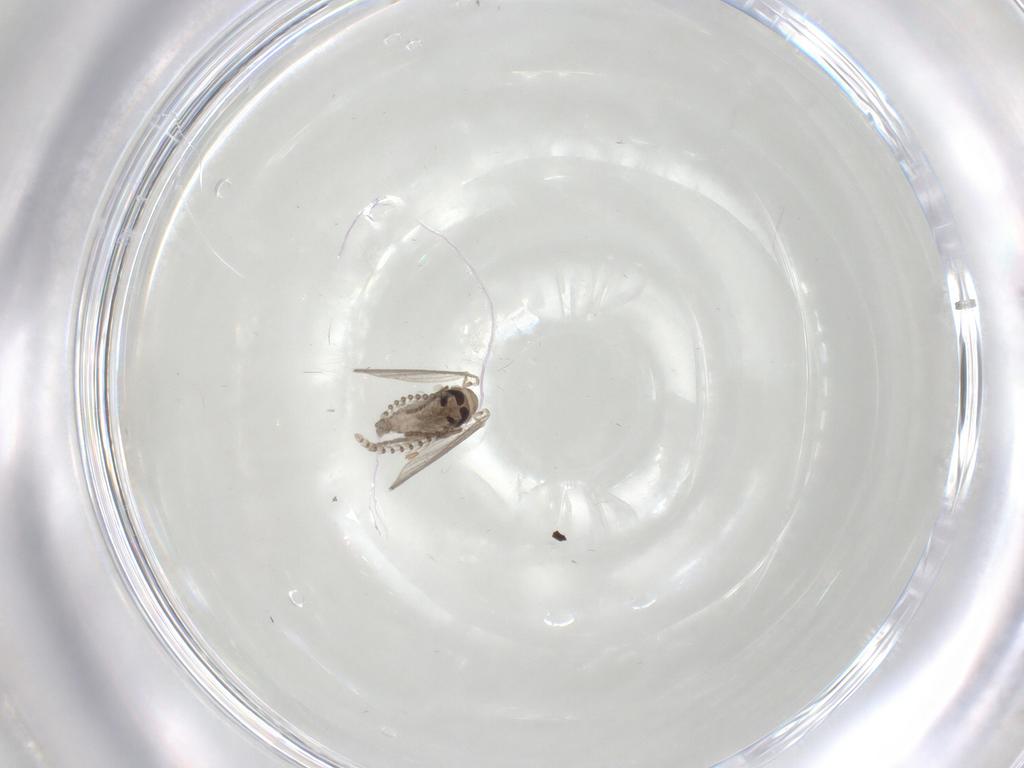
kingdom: Animalia
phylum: Arthropoda
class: Insecta
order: Diptera
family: Psychodidae
